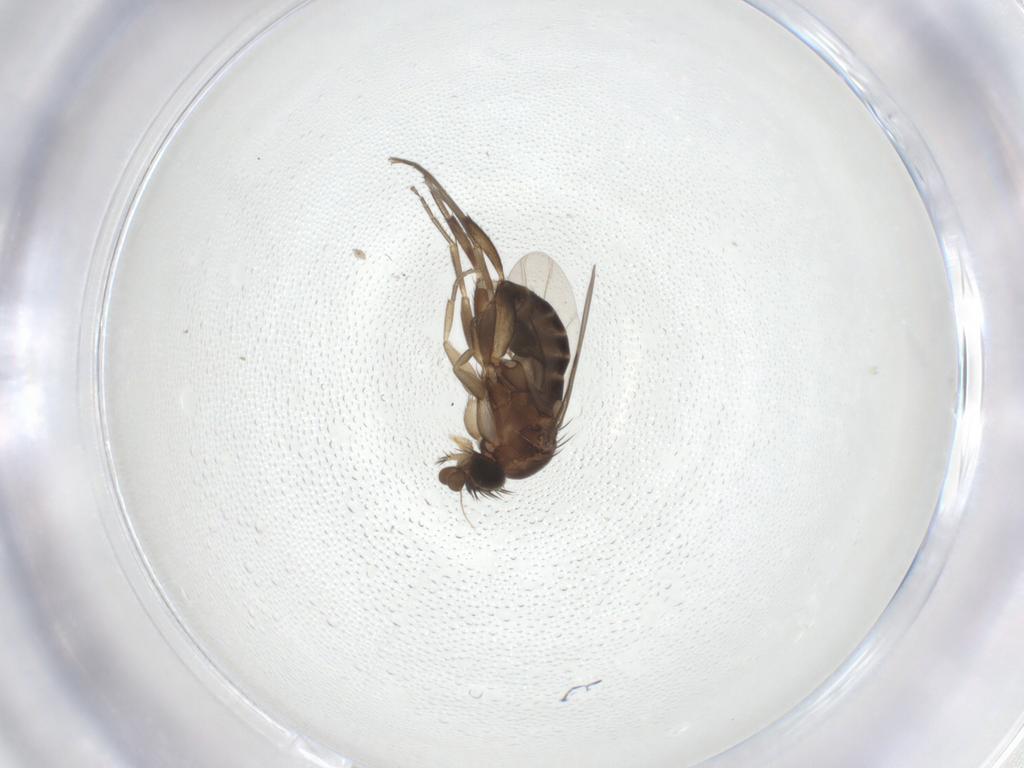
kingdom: Animalia
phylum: Arthropoda
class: Insecta
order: Diptera
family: Phoridae
